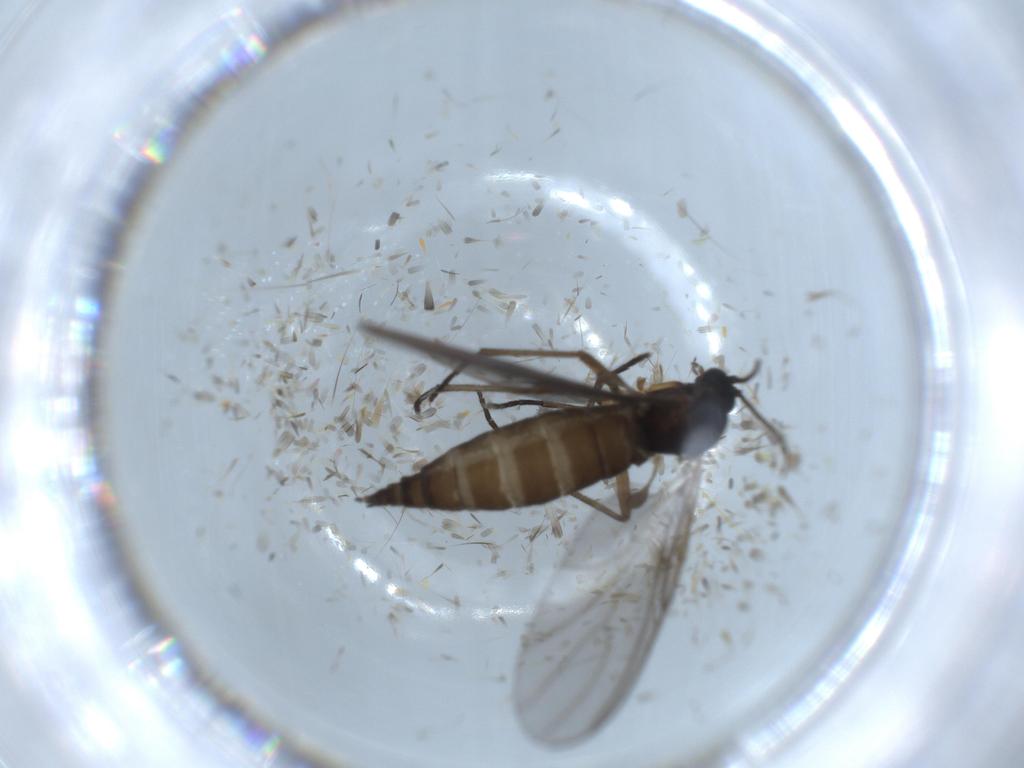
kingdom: Animalia
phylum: Arthropoda
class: Insecta
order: Diptera
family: Sciaridae
